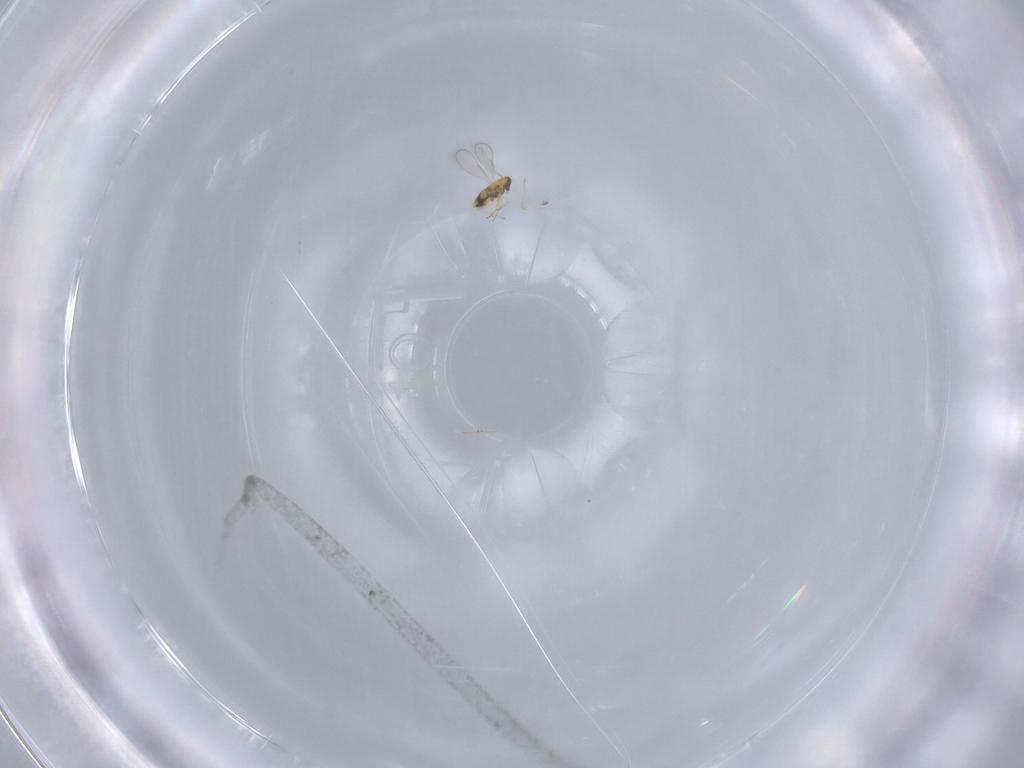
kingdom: Animalia
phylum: Arthropoda
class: Insecta
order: Hymenoptera
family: Aphelinidae
